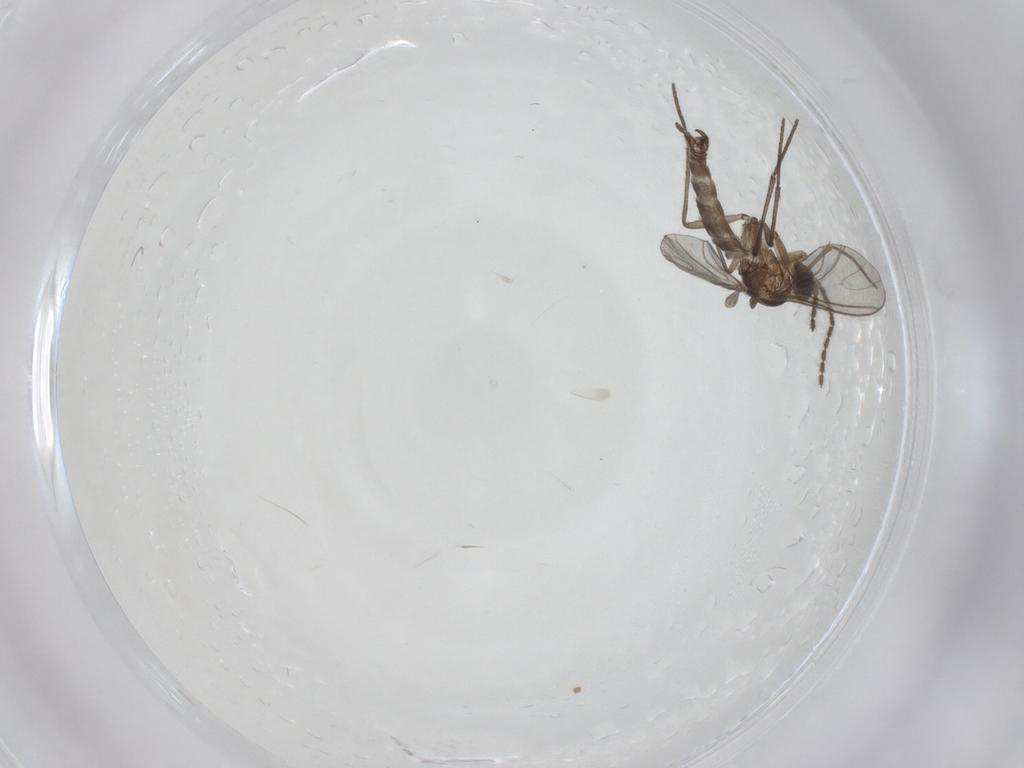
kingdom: Animalia
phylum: Arthropoda
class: Insecta
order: Diptera
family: Sciaridae
